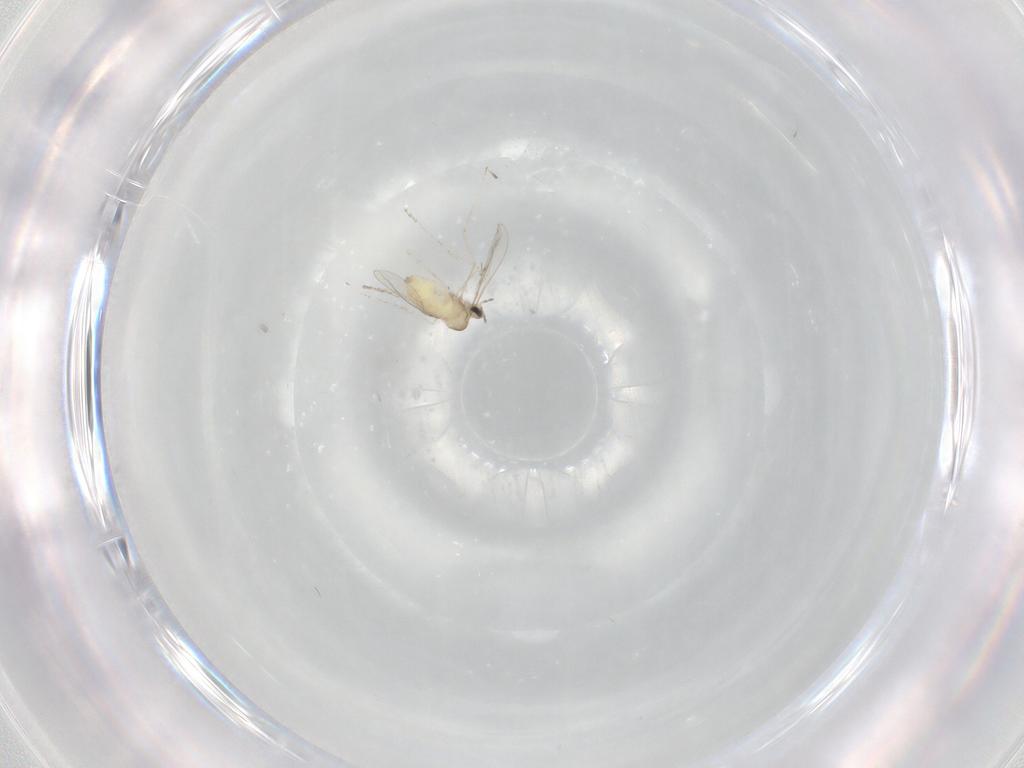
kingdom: Animalia
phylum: Arthropoda
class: Insecta
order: Diptera
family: Cecidomyiidae
